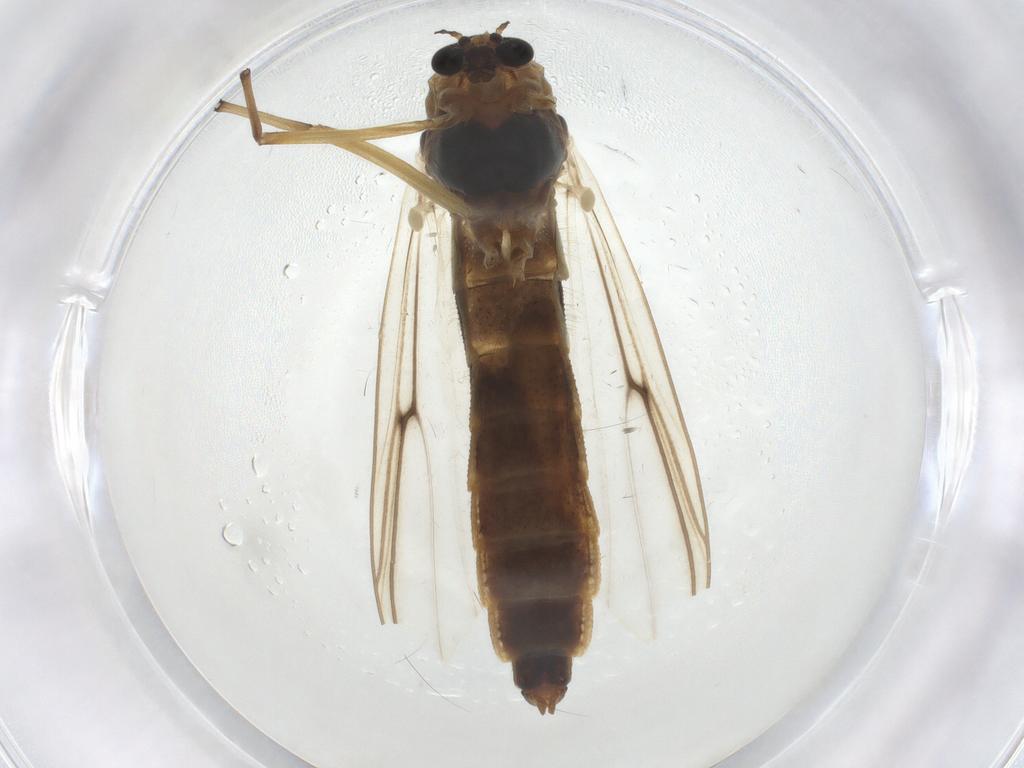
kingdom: Animalia
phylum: Arthropoda
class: Insecta
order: Diptera
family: Chironomidae
